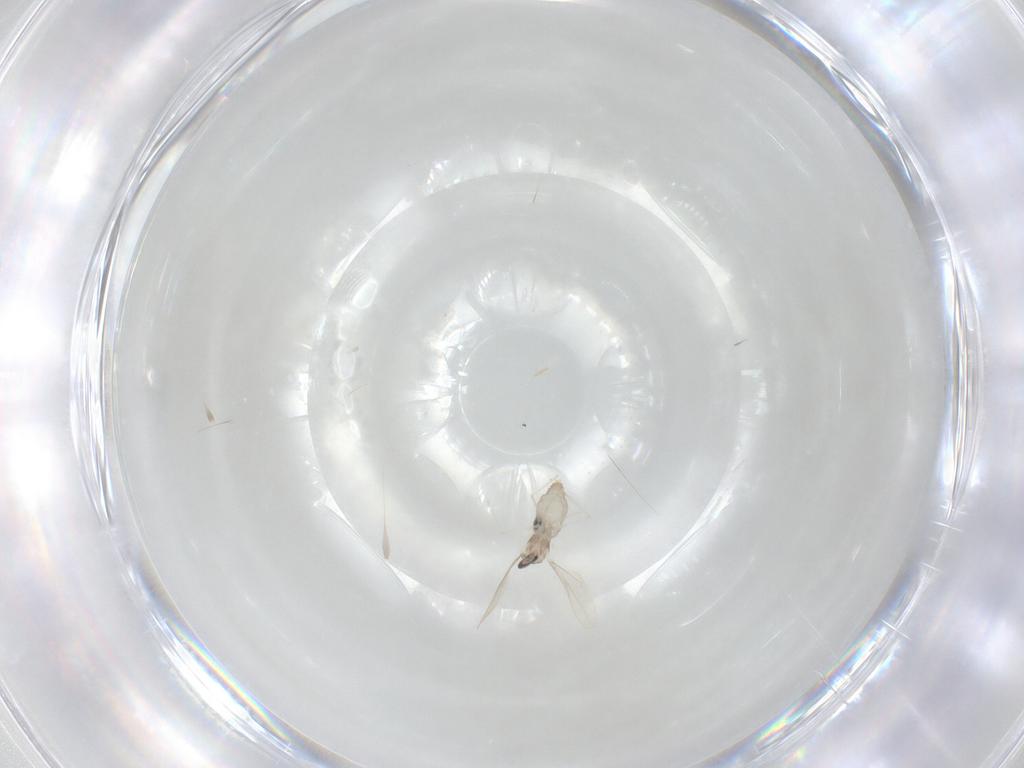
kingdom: Animalia
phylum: Arthropoda
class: Insecta
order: Diptera
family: Cecidomyiidae
